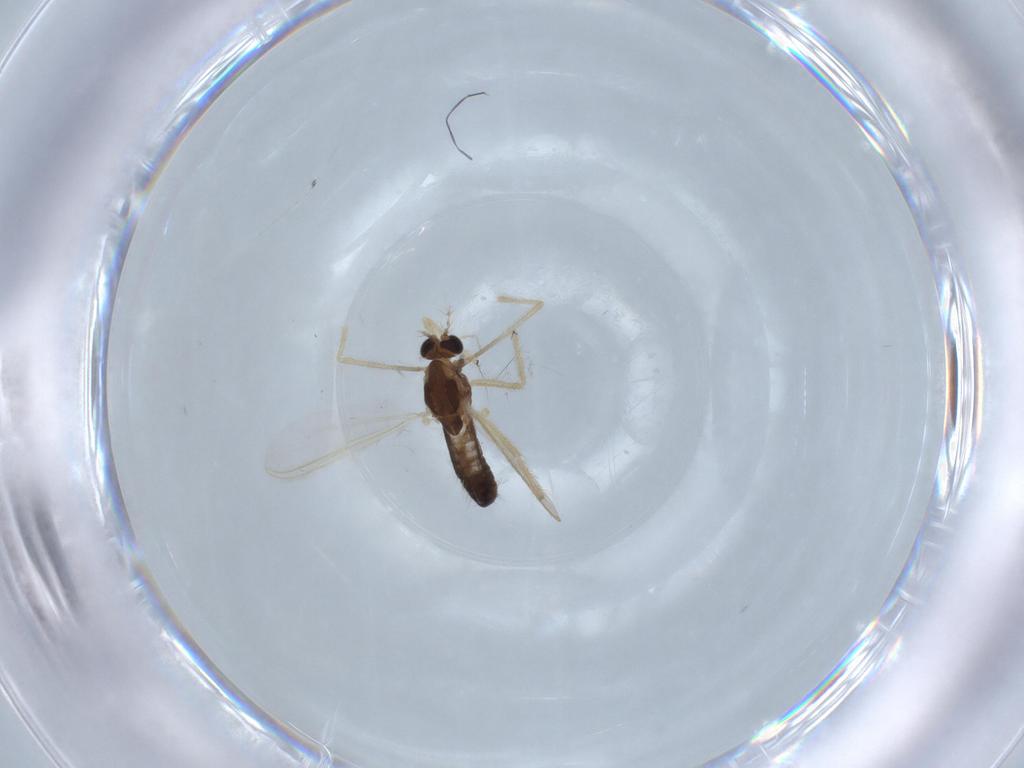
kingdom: Animalia
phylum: Arthropoda
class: Insecta
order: Diptera
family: Chironomidae
